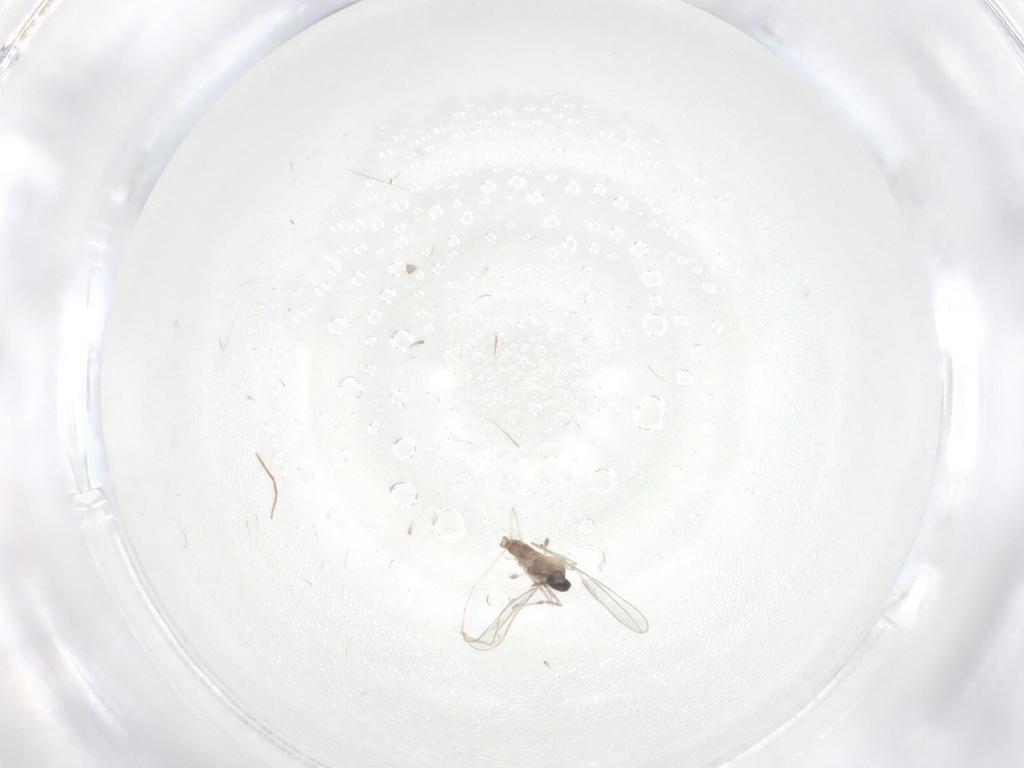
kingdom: Animalia
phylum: Arthropoda
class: Insecta
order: Diptera
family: Cecidomyiidae
